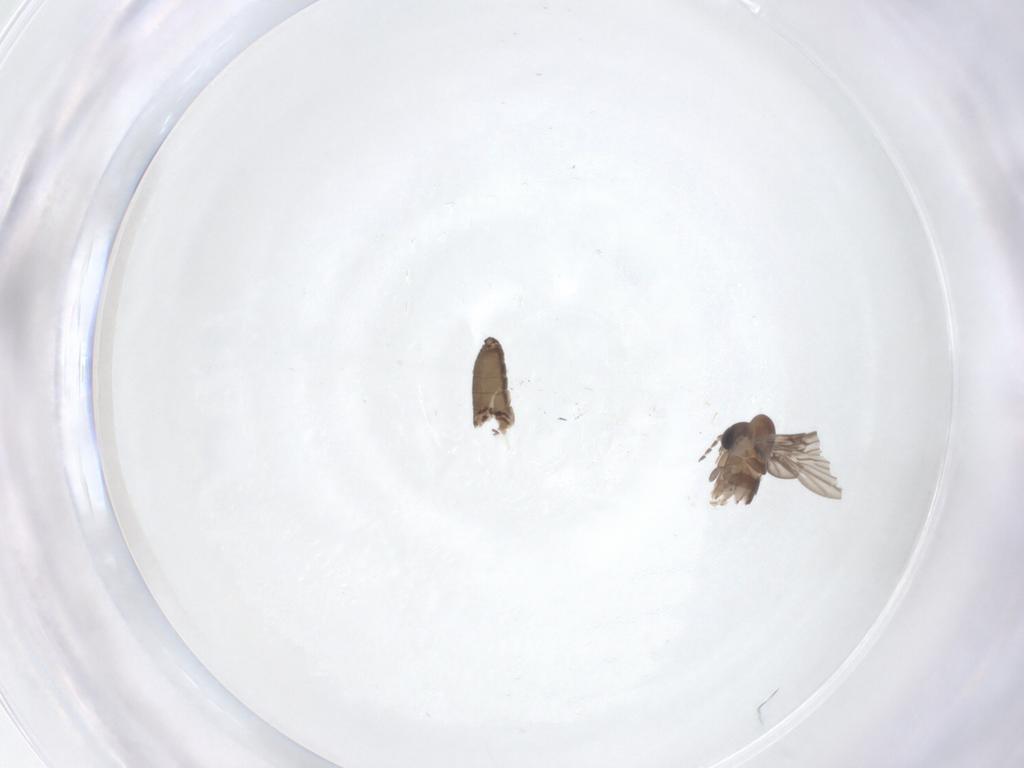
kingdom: Animalia
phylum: Arthropoda
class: Insecta
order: Diptera
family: Psychodidae
